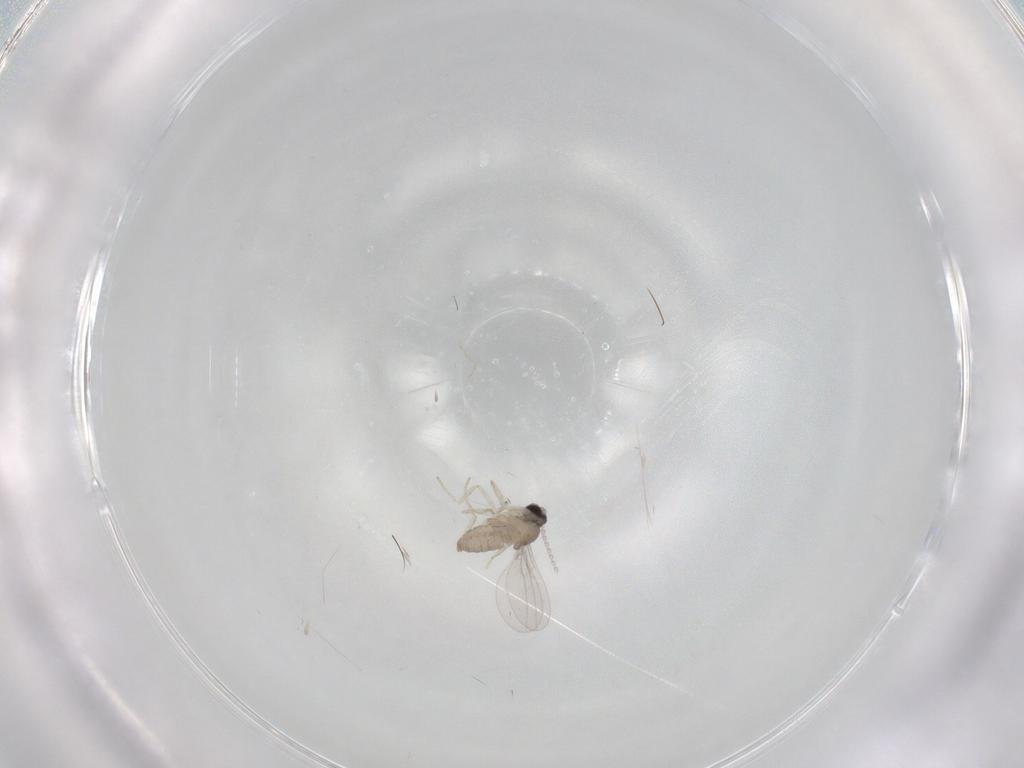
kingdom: Animalia
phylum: Arthropoda
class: Insecta
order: Diptera
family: Cecidomyiidae
